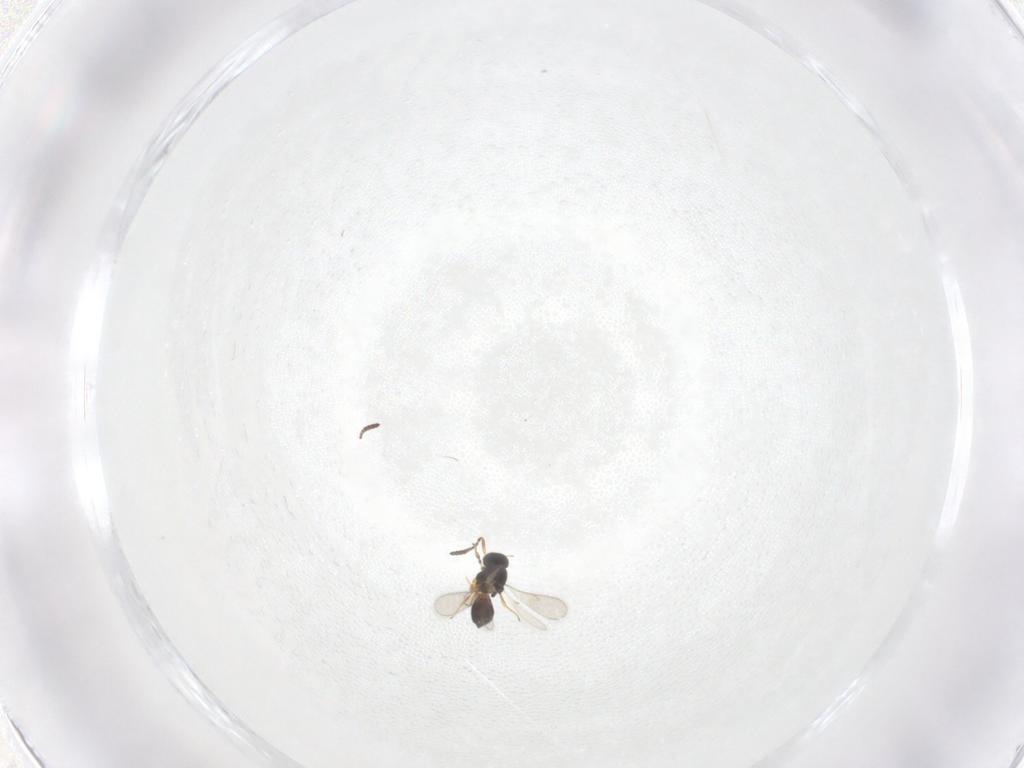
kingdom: Animalia
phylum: Arthropoda
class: Insecta
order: Hymenoptera
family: Scelionidae
